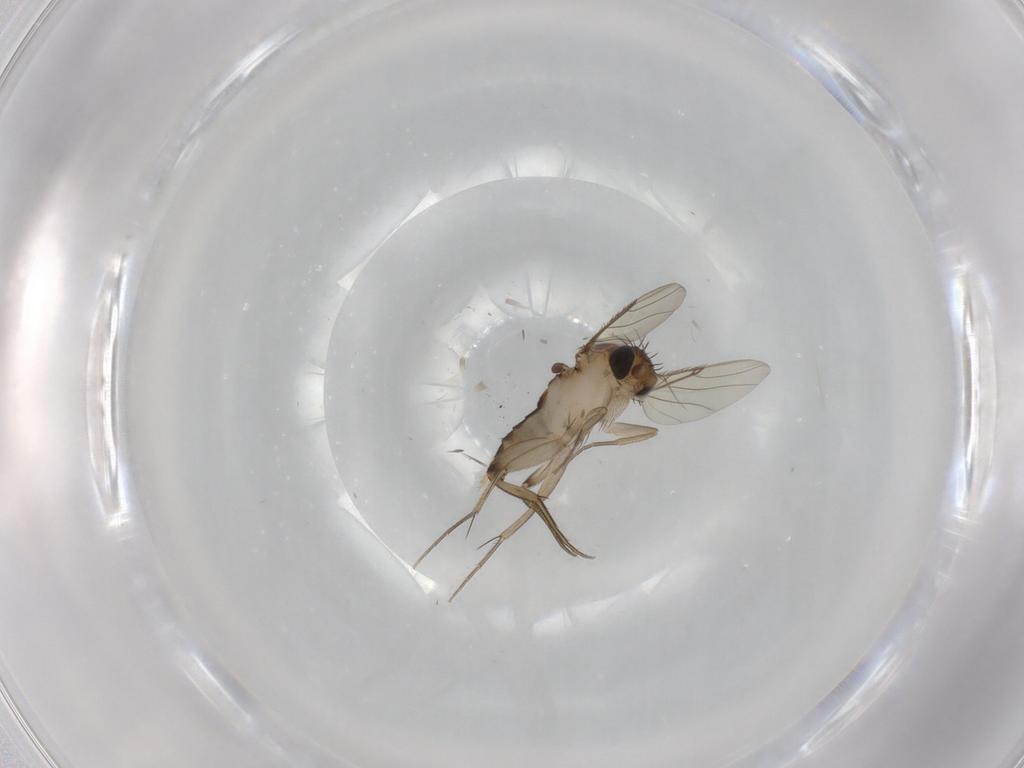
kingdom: Animalia
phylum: Arthropoda
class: Insecta
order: Diptera
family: Phoridae
